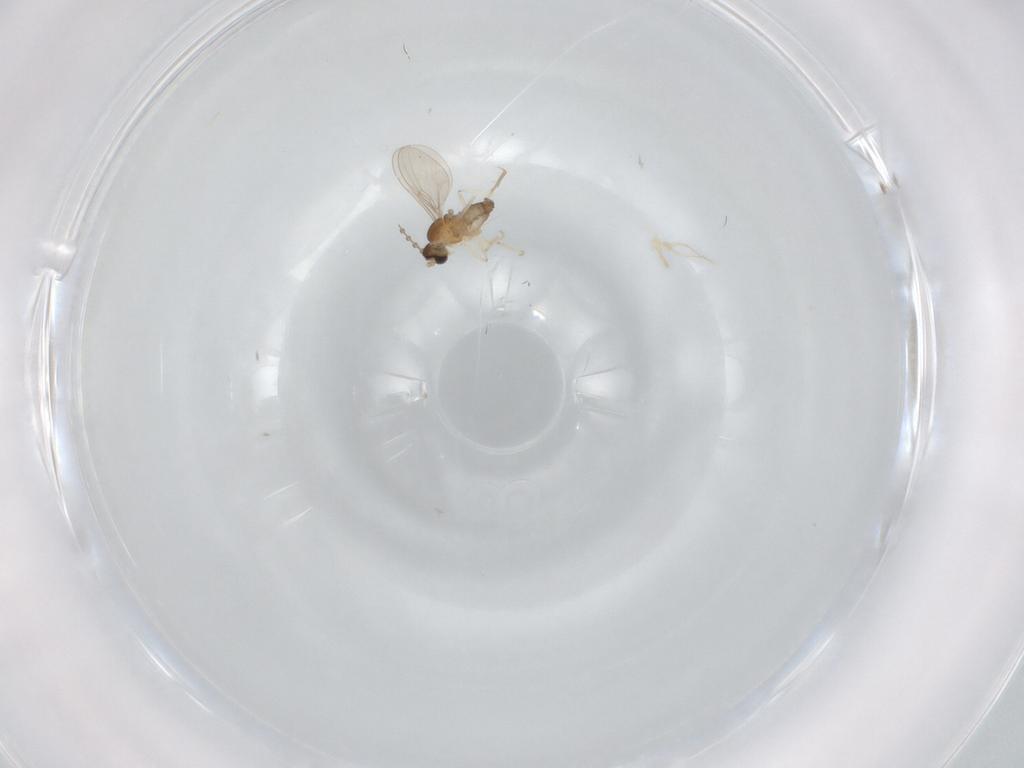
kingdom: Animalia
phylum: Arthropoda
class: Insecta
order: Diptera
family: Cecidomyiidae
